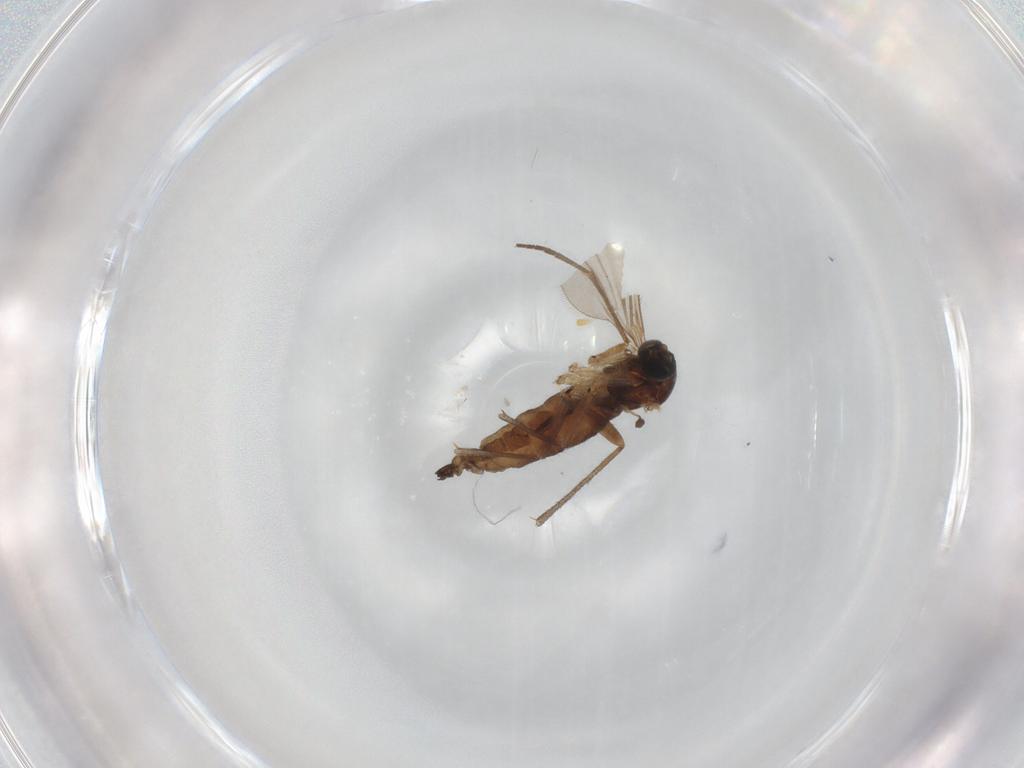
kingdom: Animalia
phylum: Arthropoda
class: Insecta
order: Diptera
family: Sciaridae
